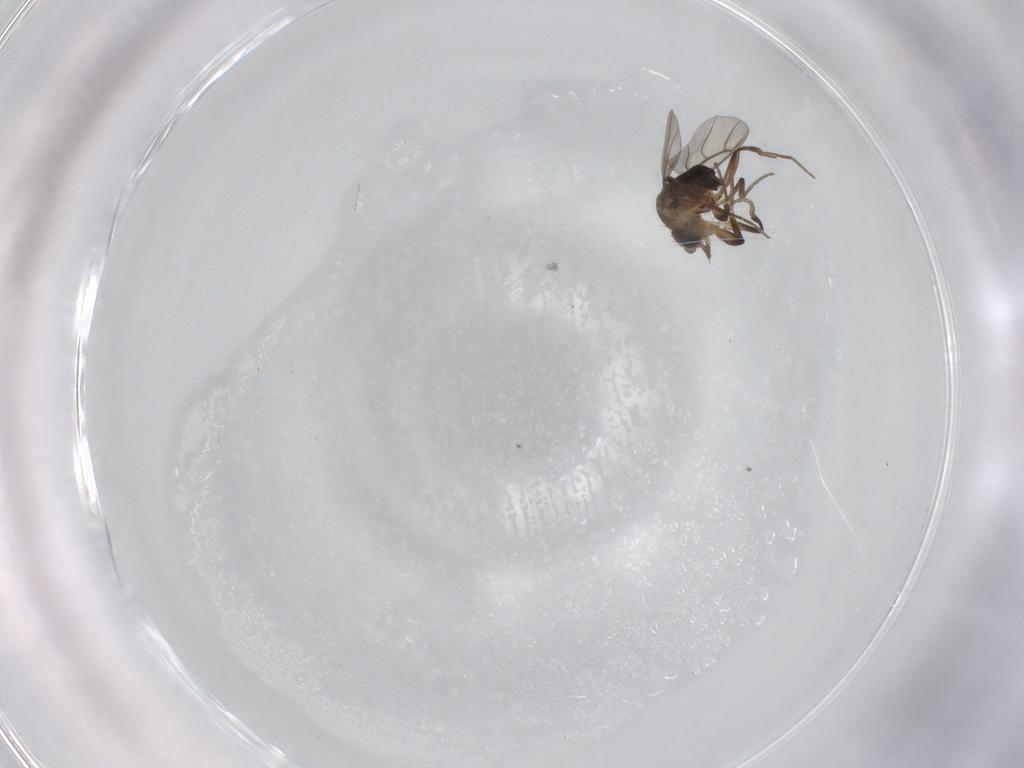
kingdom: Animalia
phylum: Arthropoda
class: Insecta
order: Diptera
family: Phoridae
